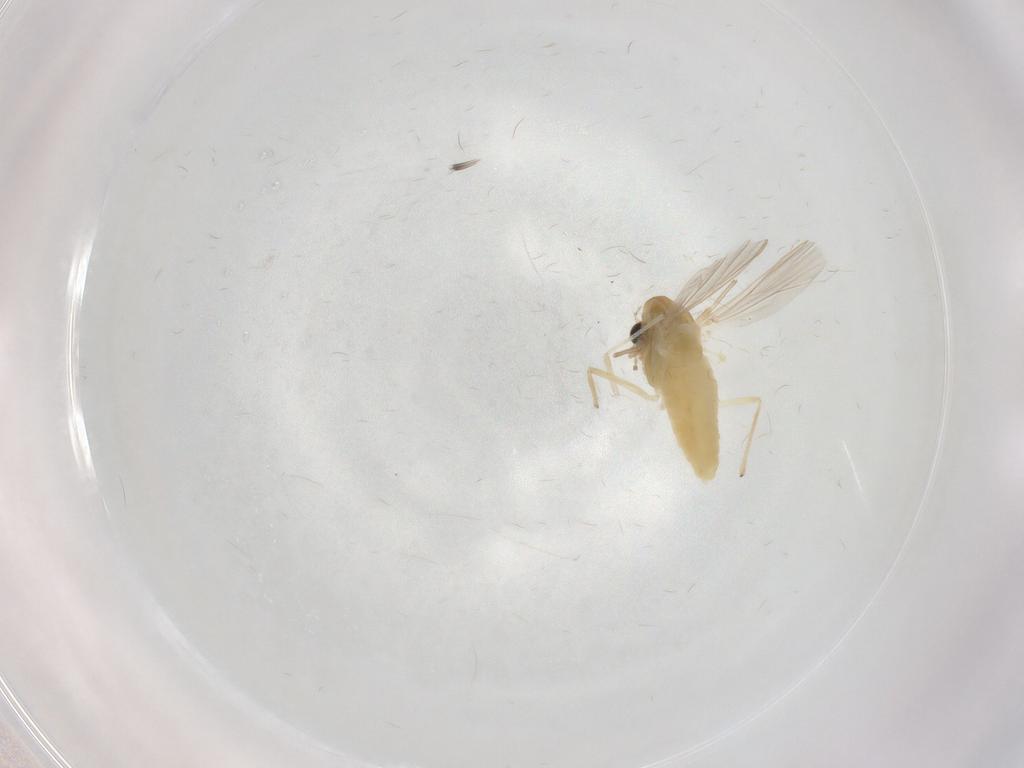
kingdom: Animalia
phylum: Arthropoda
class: Insecta
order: Diptera
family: Chironomidae
